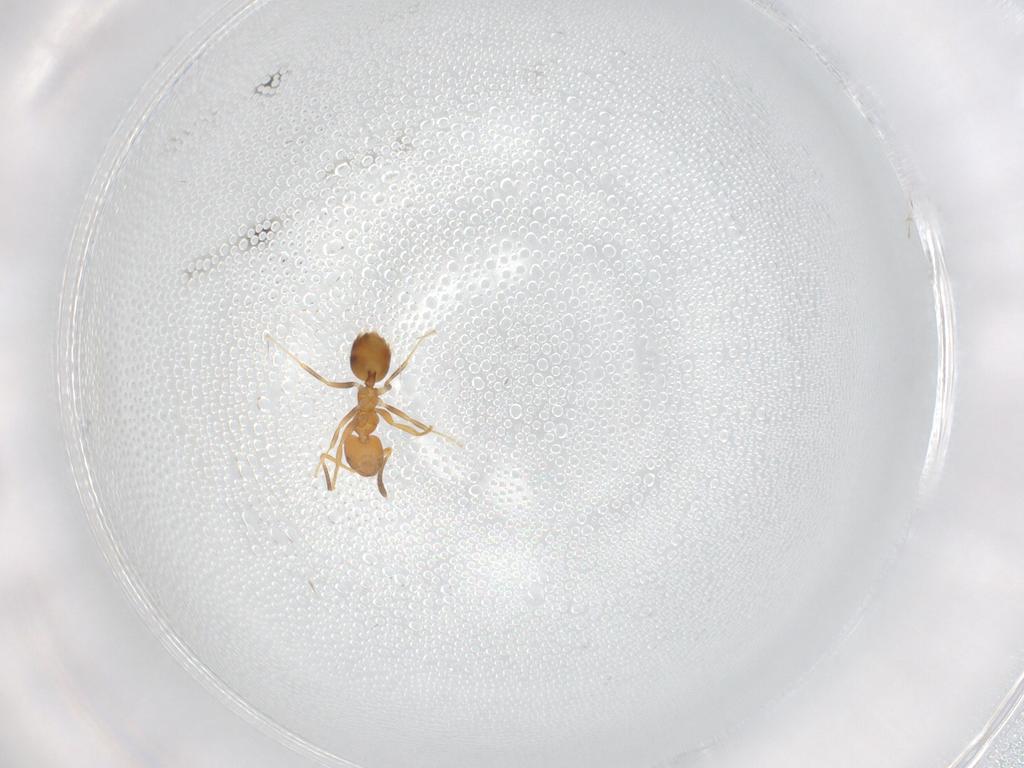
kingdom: Animalia
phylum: Arthropoda
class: Insecta
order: Hymenoptera
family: Formicidae
